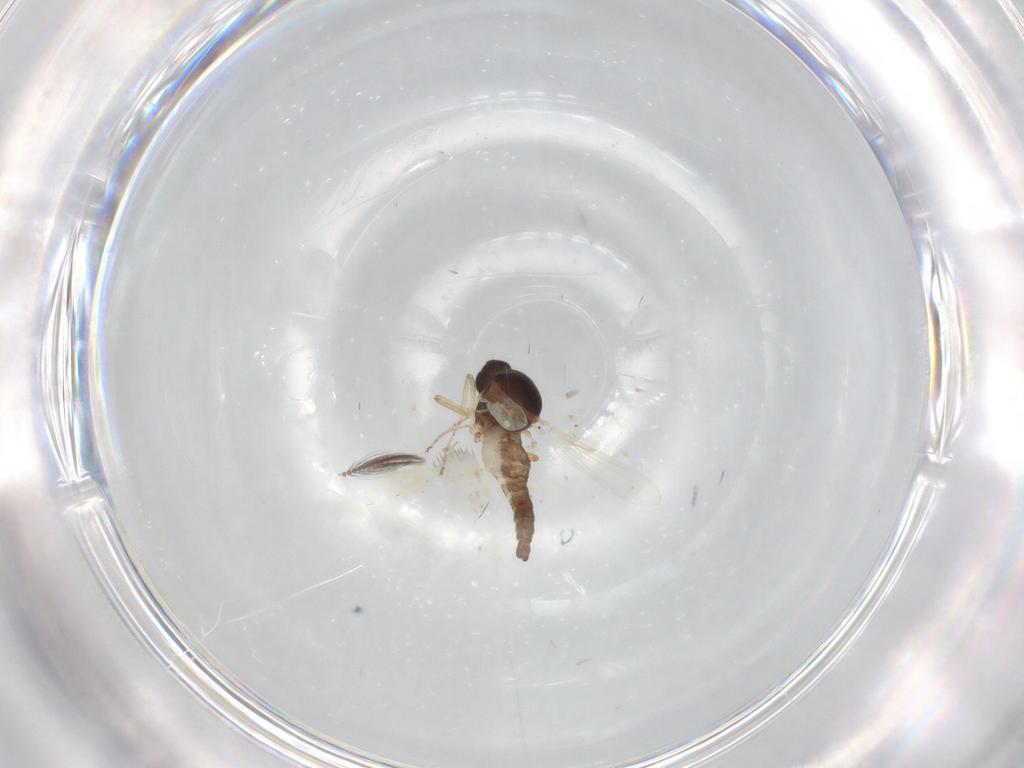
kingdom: Animalia
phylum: Arthropoda
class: Insecta
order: Diptera
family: Ceratopogonidae
